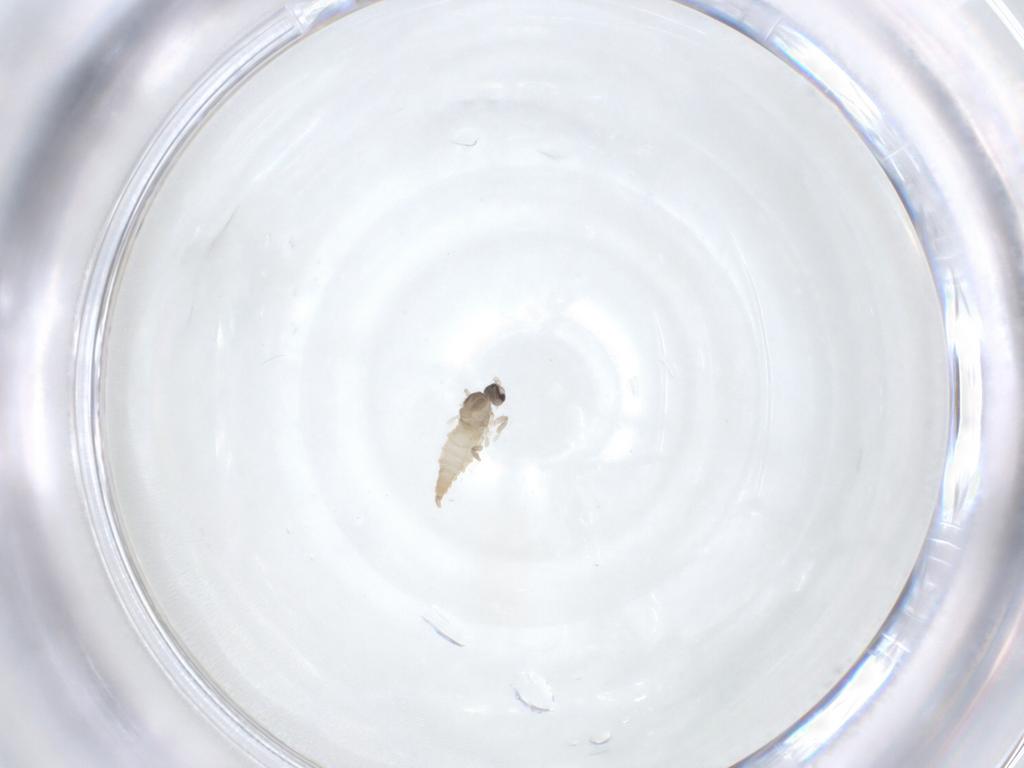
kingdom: Animalia
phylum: Arthropoda
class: Insecta
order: Diptera
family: Cecidomyiidae
